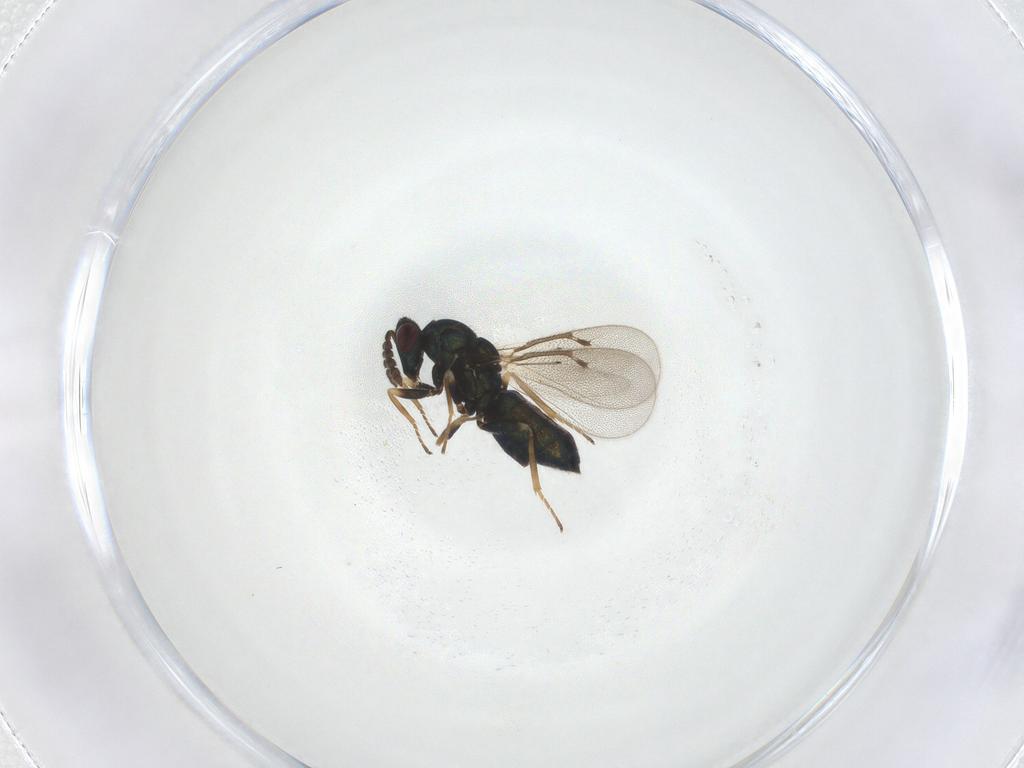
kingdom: Animalia
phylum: Arthropoda
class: Insecta
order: Hymenoptera
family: Eulophidae
